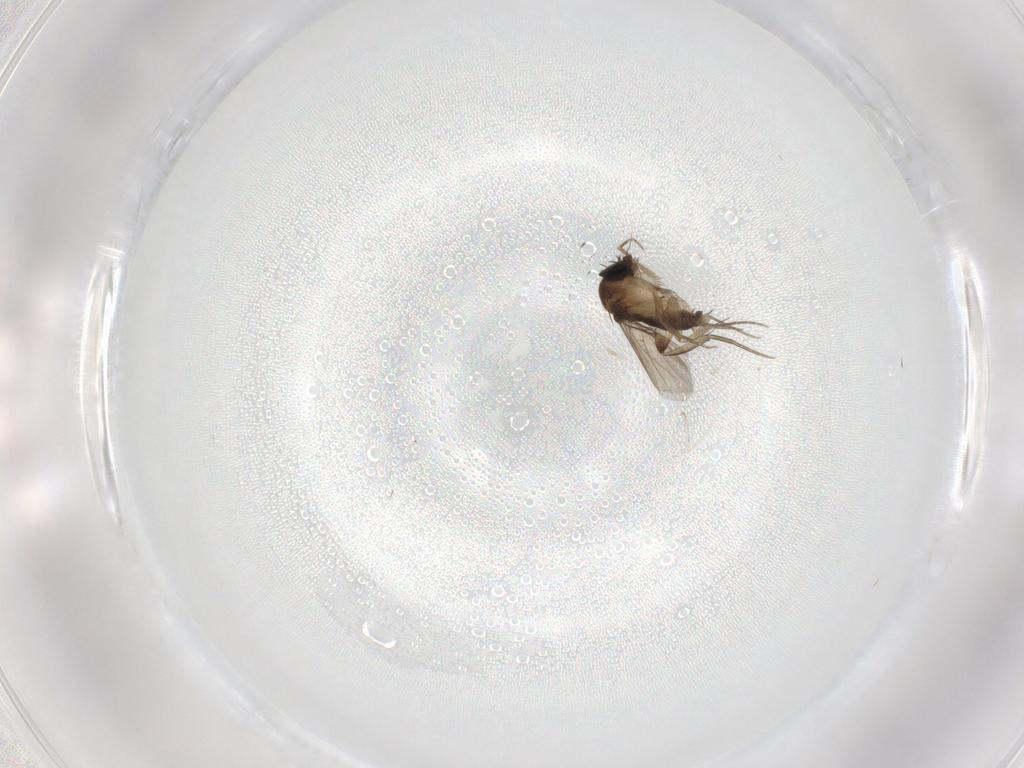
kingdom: Animalia
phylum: Arthropoda
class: Insecta
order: Diptera
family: Phoridae
